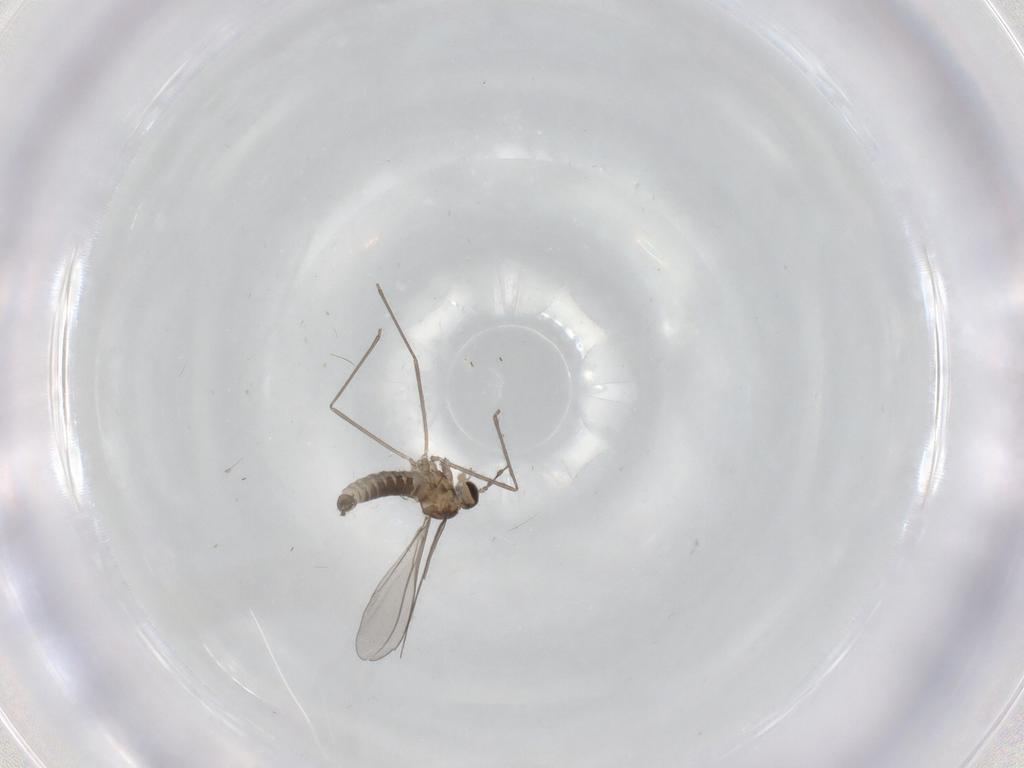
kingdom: Animalia
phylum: Arthropoda
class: Insecta
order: Diptera
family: Cecidomyiidae
